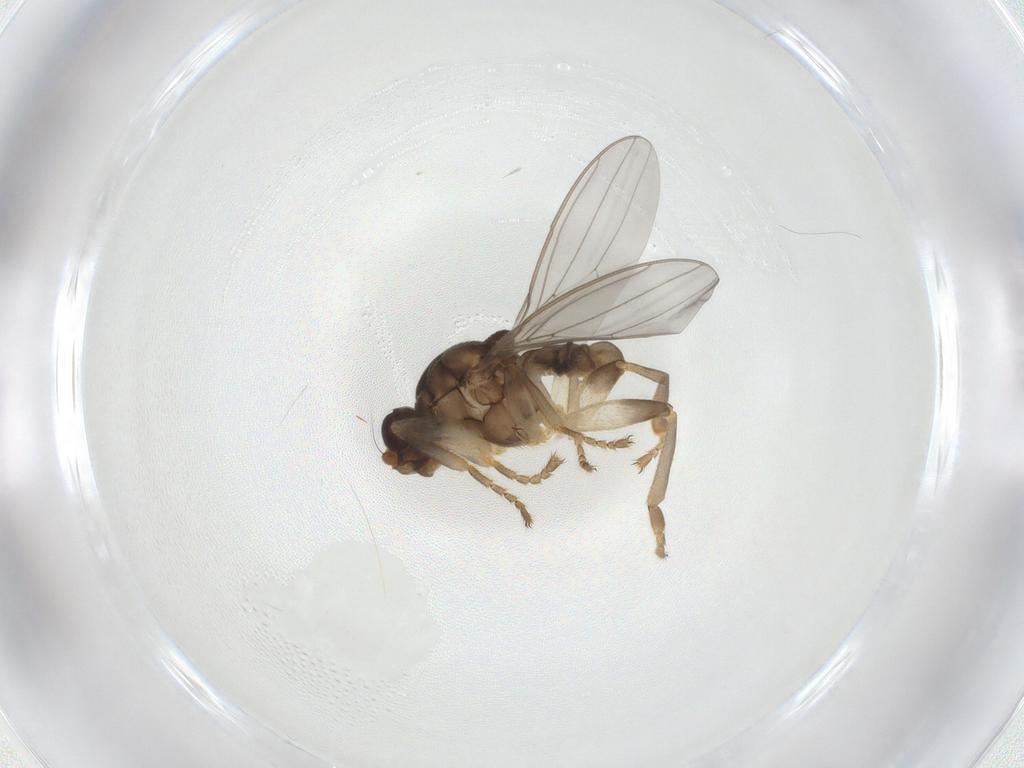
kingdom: Animalia
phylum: Arthropoda
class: Insecta
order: Diptera
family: Sphaeroceridae
